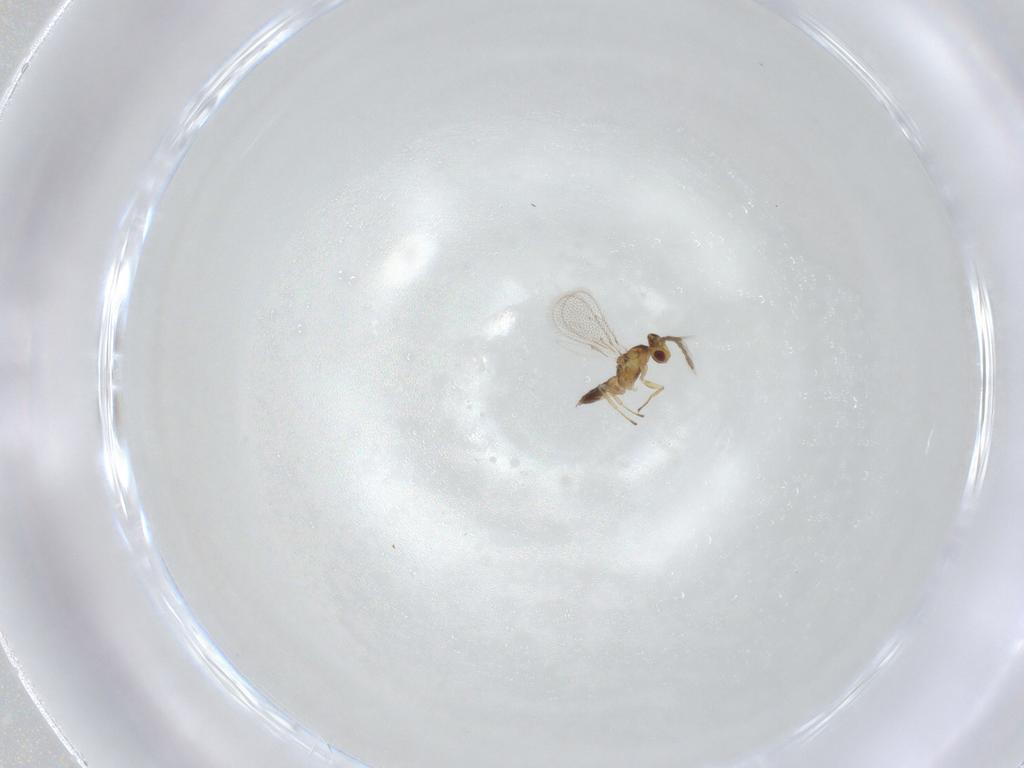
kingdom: Animalia
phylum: Arthropoda
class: Insecta
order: Hymenoptera
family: Eulophidae
